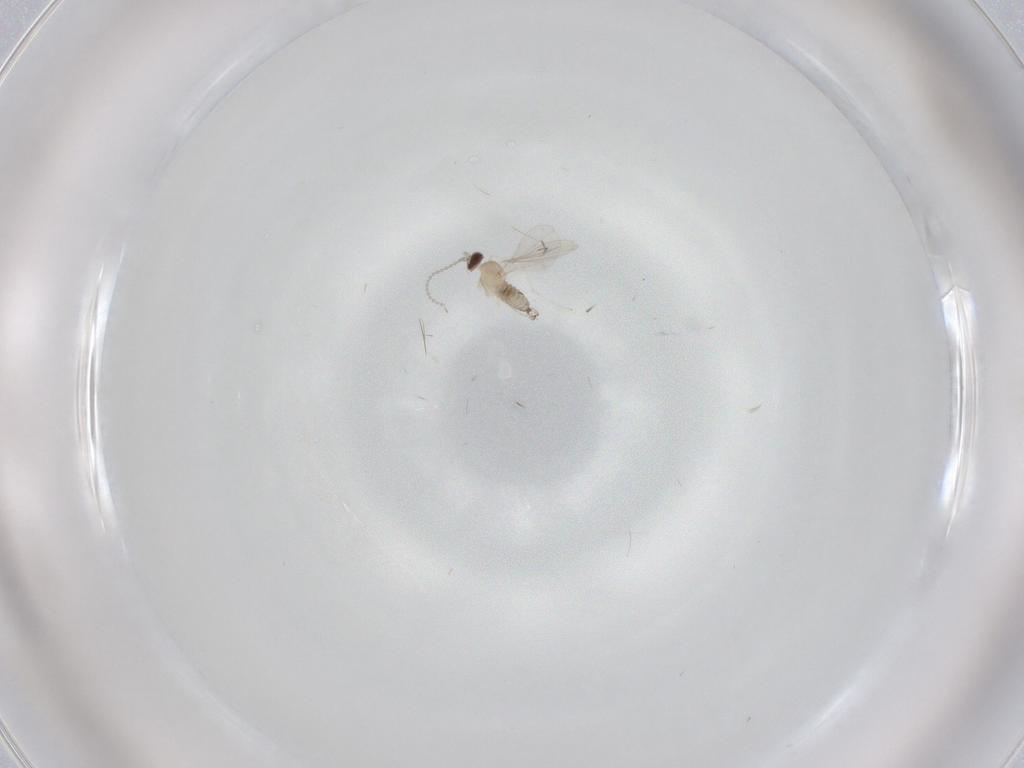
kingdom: Animalia
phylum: Arthropoda
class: Insecta
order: Diptera
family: Cecidomyiidae
